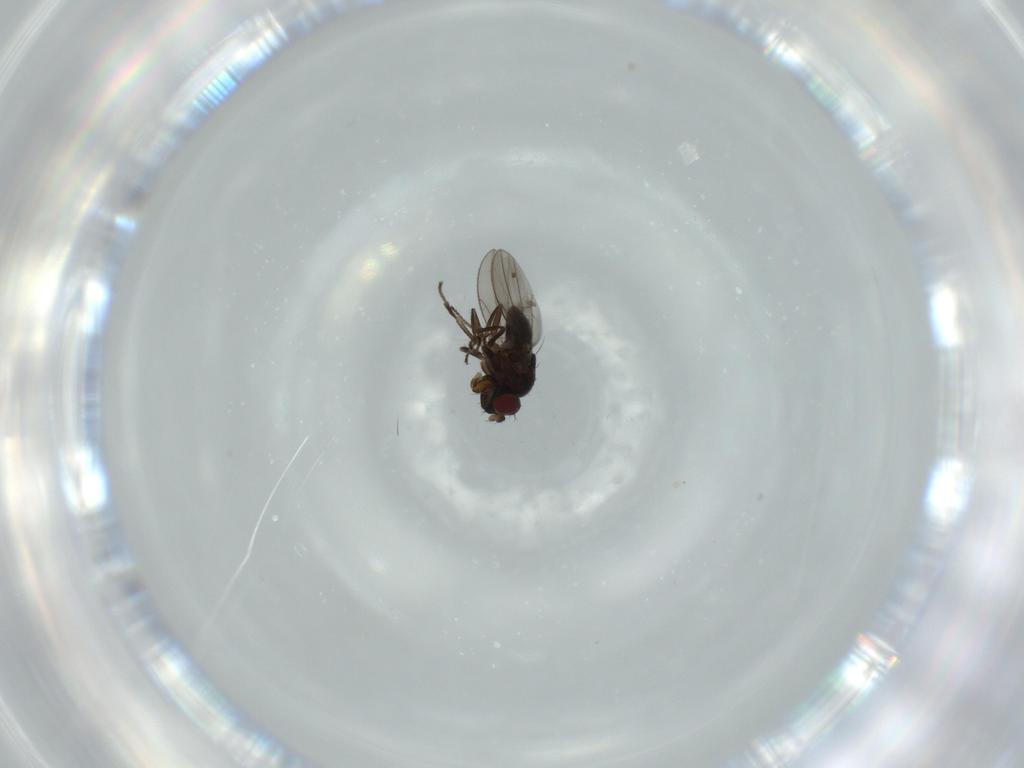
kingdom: Animalia
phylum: Arthropoda
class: Insecta
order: Diptera
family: Ephydridae
